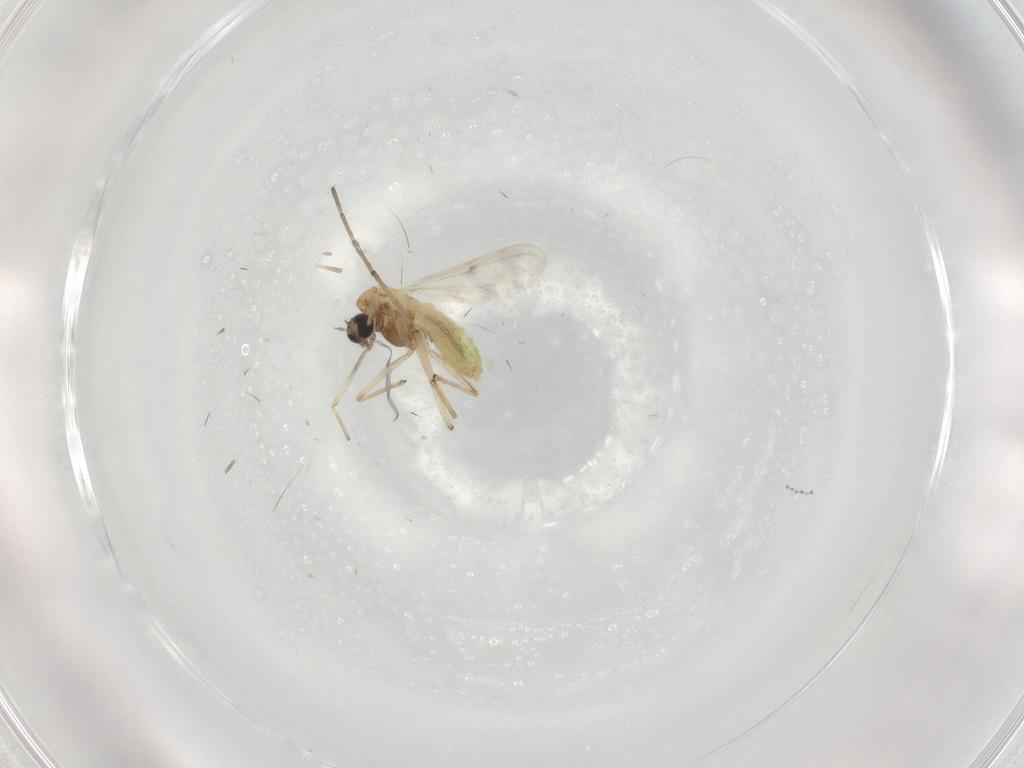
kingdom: Animalia
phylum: Arthropoda
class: Insecta
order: Diptera
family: Chironomidae
